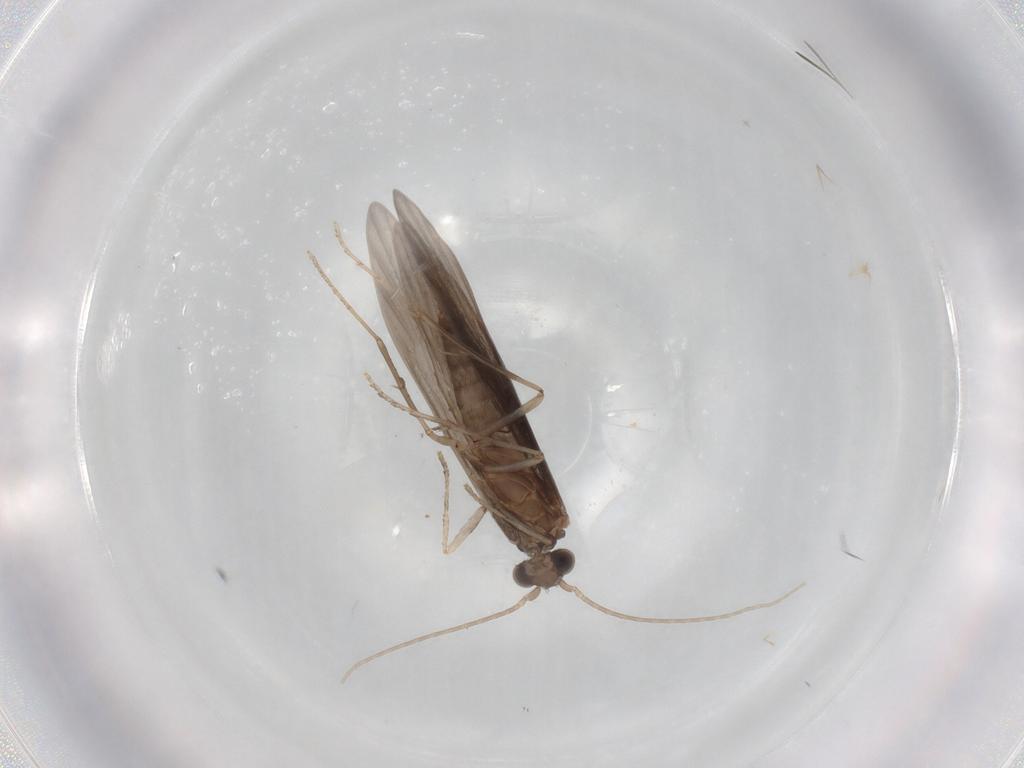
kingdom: Animalia
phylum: Arthropoda
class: Insecta
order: Trichoptera
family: Xiphocentronidae
